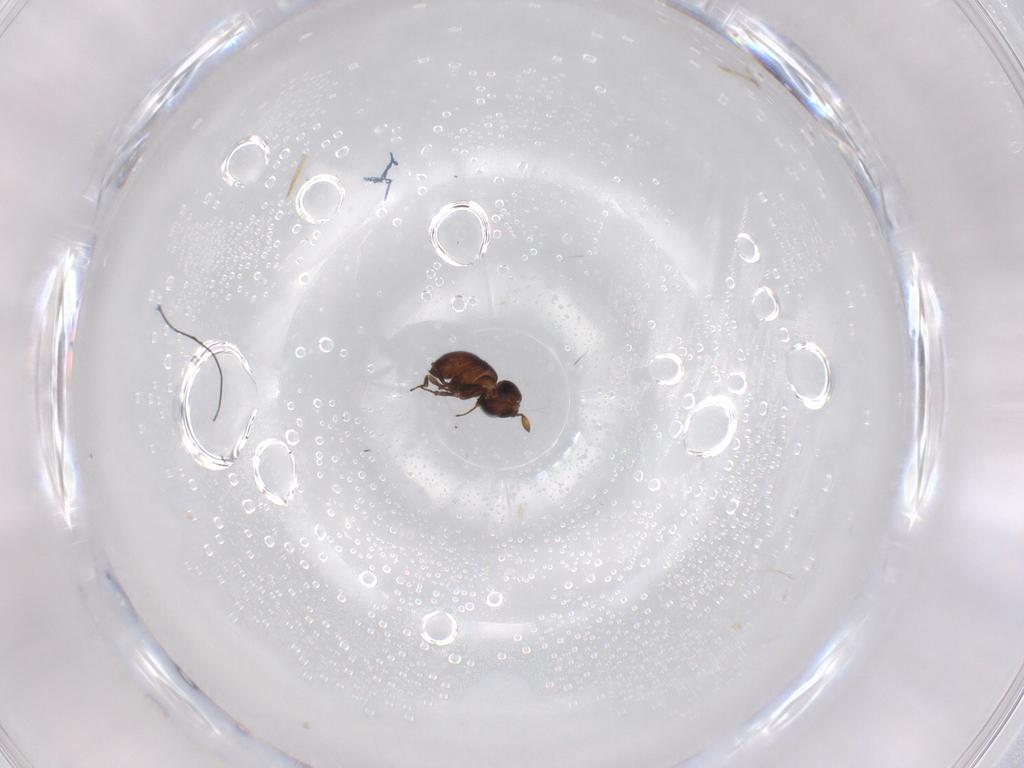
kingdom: Animalia
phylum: Arthropoda
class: Insecta
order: Hymenoptera
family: Scelionidae
